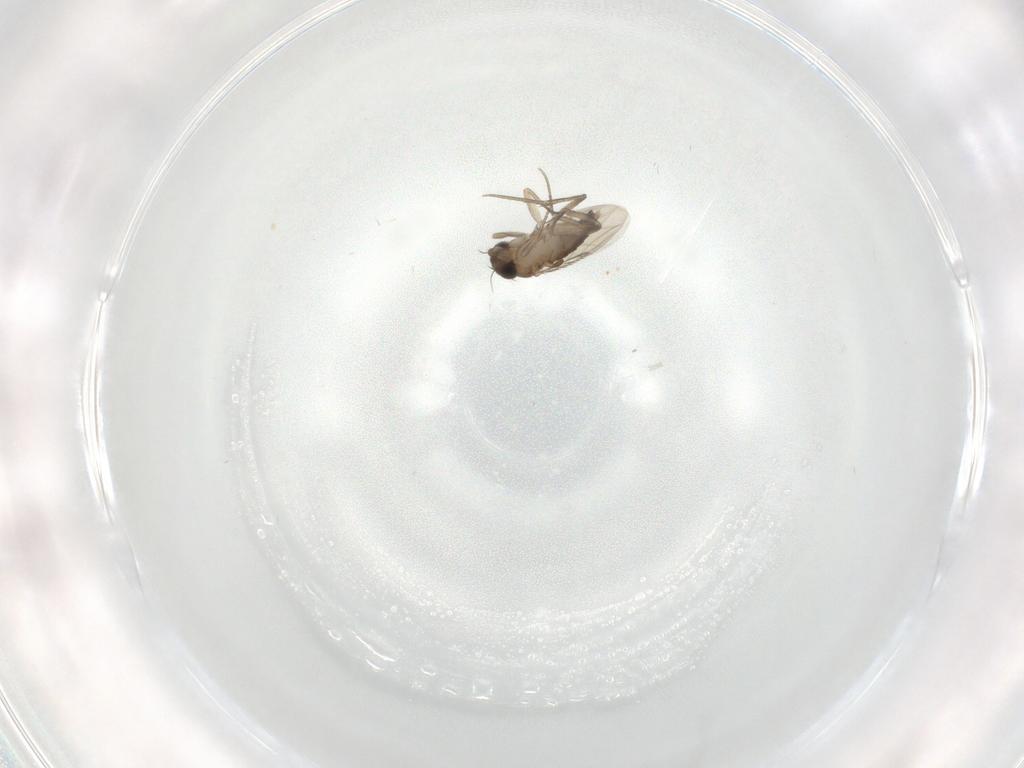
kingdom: Animalia
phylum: Arthropoda
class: Insecta
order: Diptera
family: Phoridae
